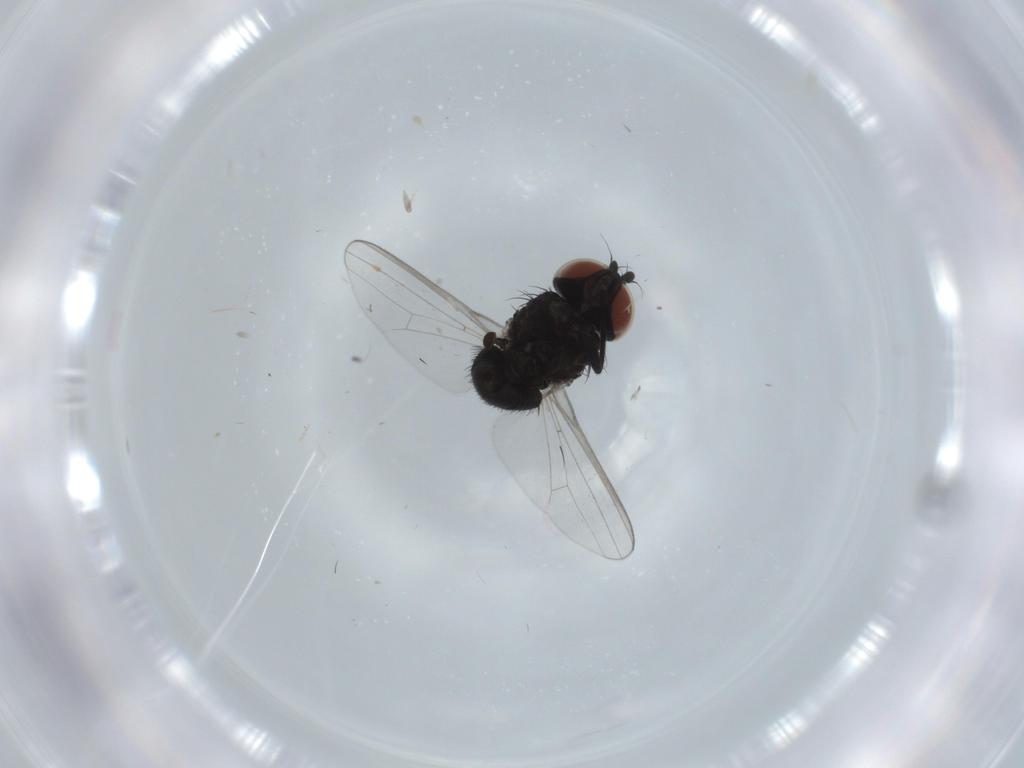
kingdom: Animalia
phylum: Arthropoda
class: Insecta
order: Diptera
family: Milichiidae
